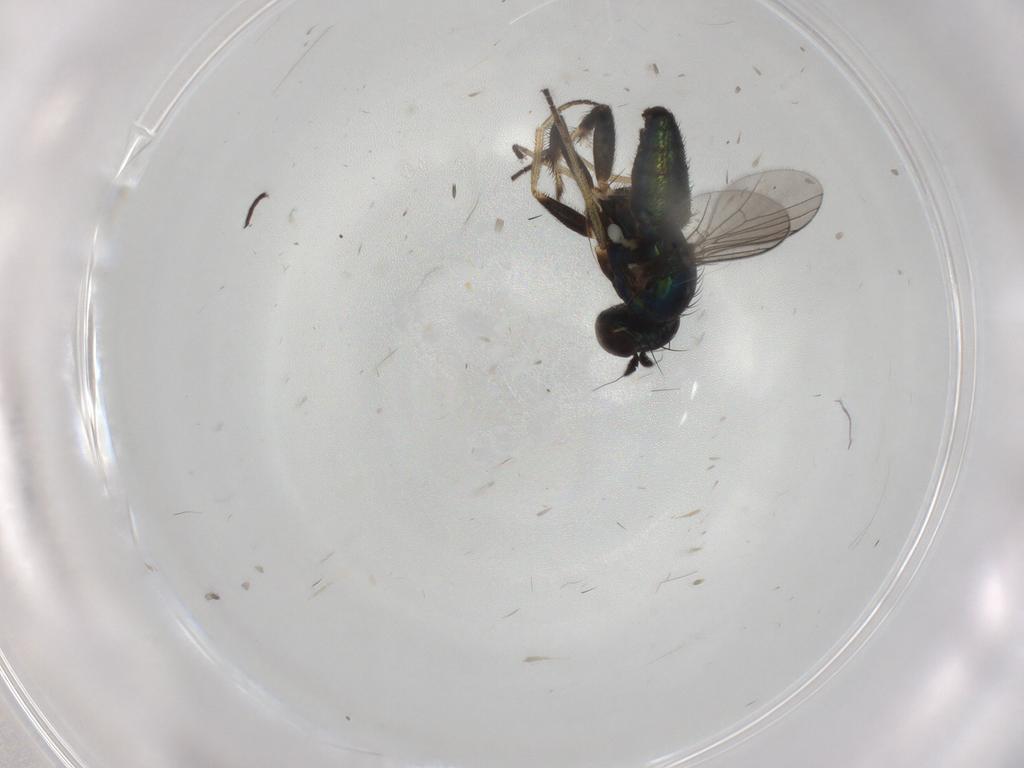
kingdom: Animalia
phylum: Arthropoda
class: Insecta
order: Diptera
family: Dolichopodidae
